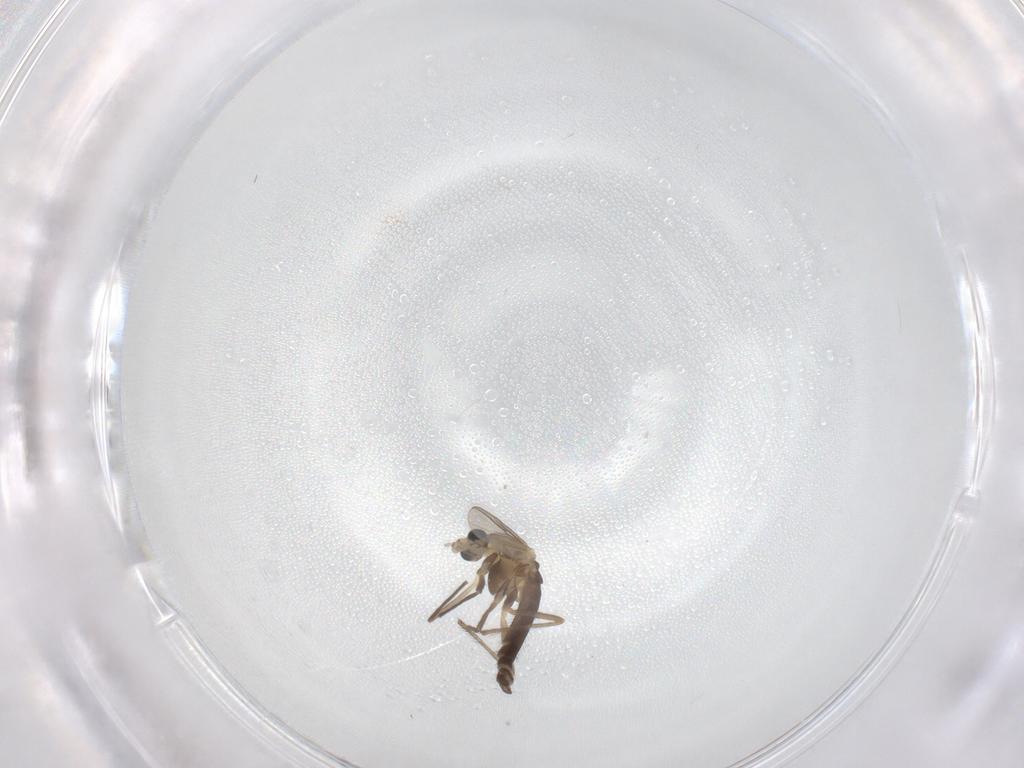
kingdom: Animalia
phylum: Arthropoda
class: Insecta
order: Diptera
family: Chironomidae
